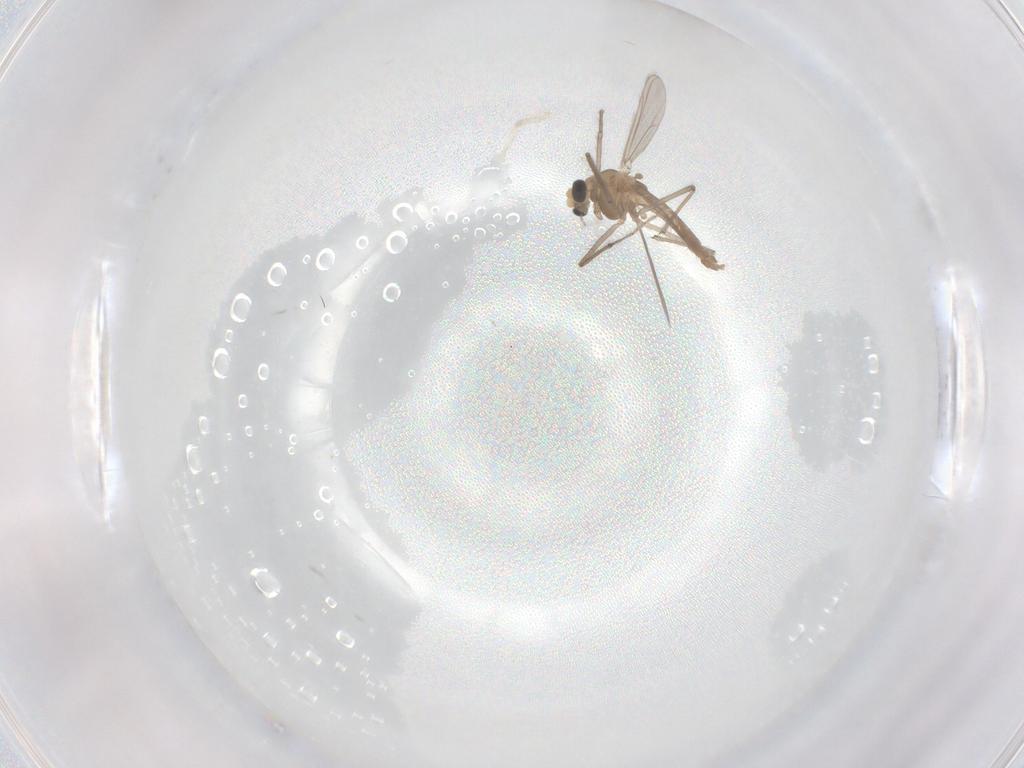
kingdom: Animalia
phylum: Arthropoda
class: Insecta
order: Diptera
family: Chironomidae
